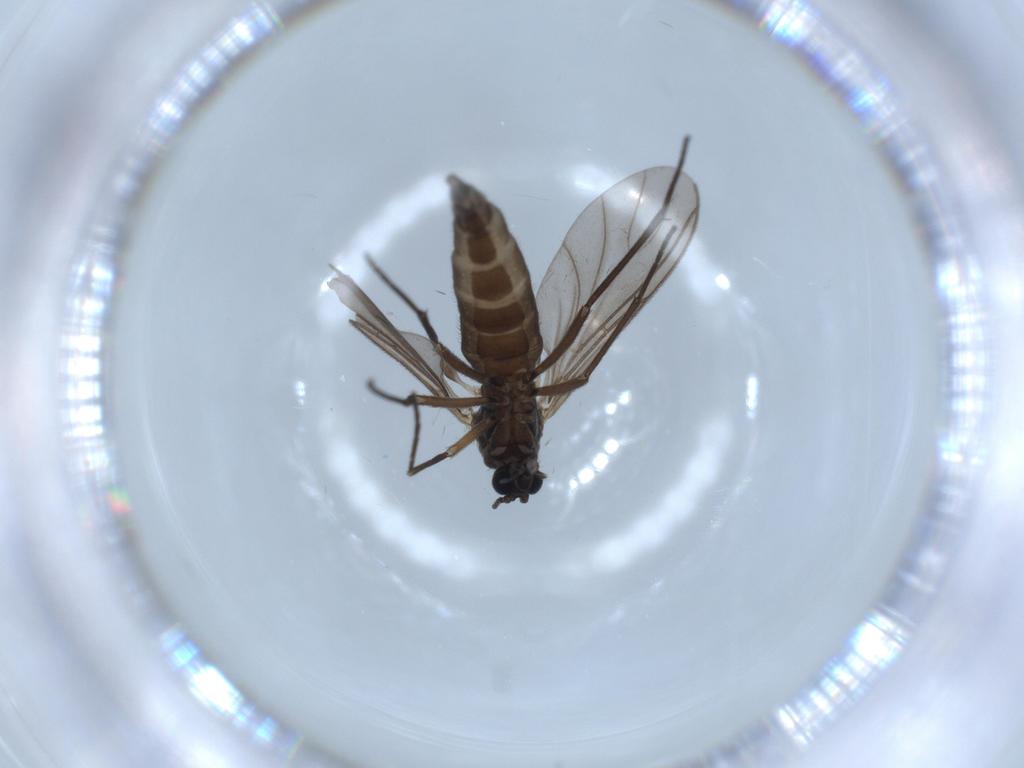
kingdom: Animalia
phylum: Arthropoda
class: Insecta
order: Diptera
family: Sciaridae
